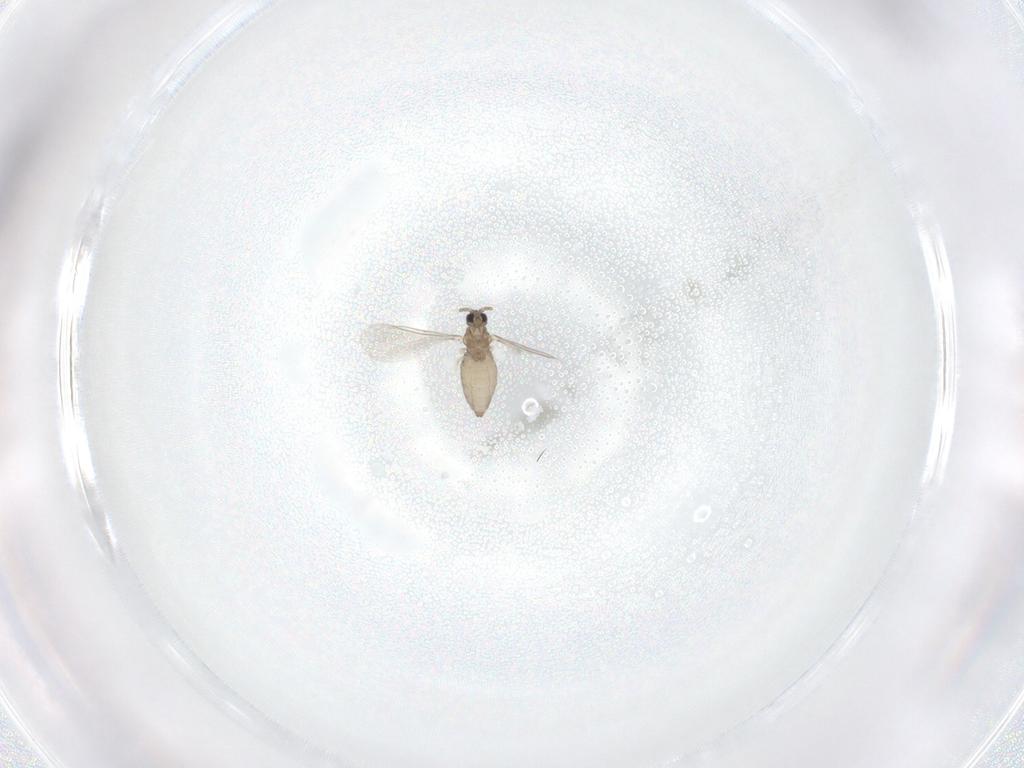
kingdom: Animalia
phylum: Arthropoda
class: Insecta
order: Diptera
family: Cecidomyiidae
